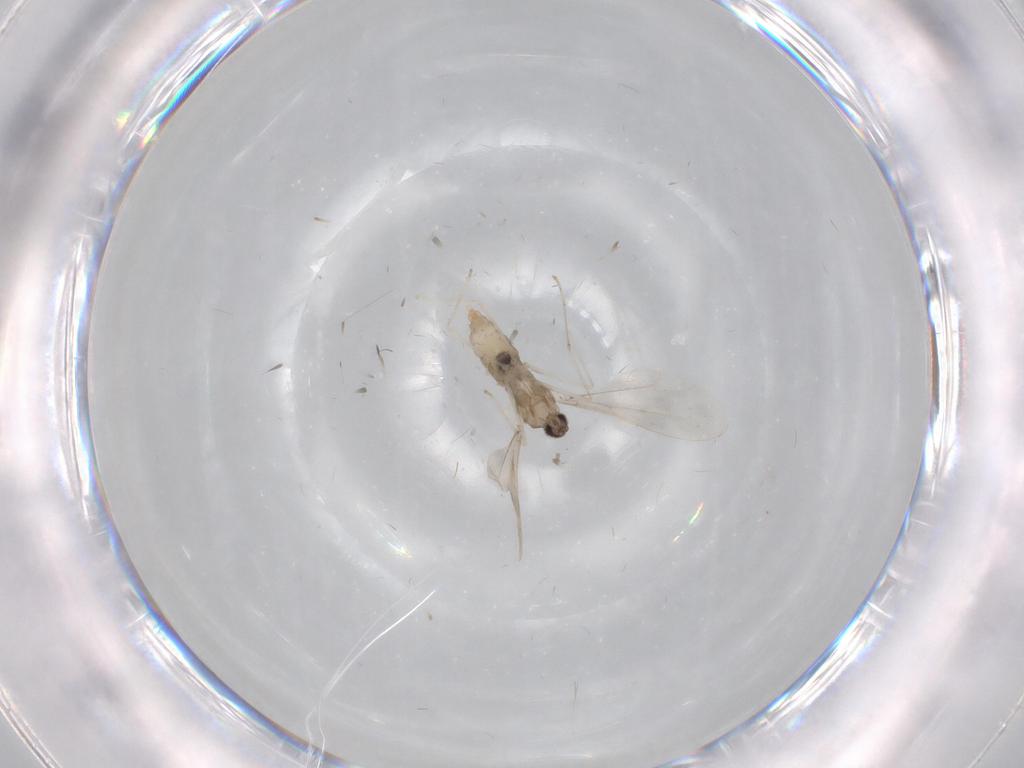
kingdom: Animalia
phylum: Arthropoda
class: Insecta
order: Diptera
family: Cecidomyiidae
